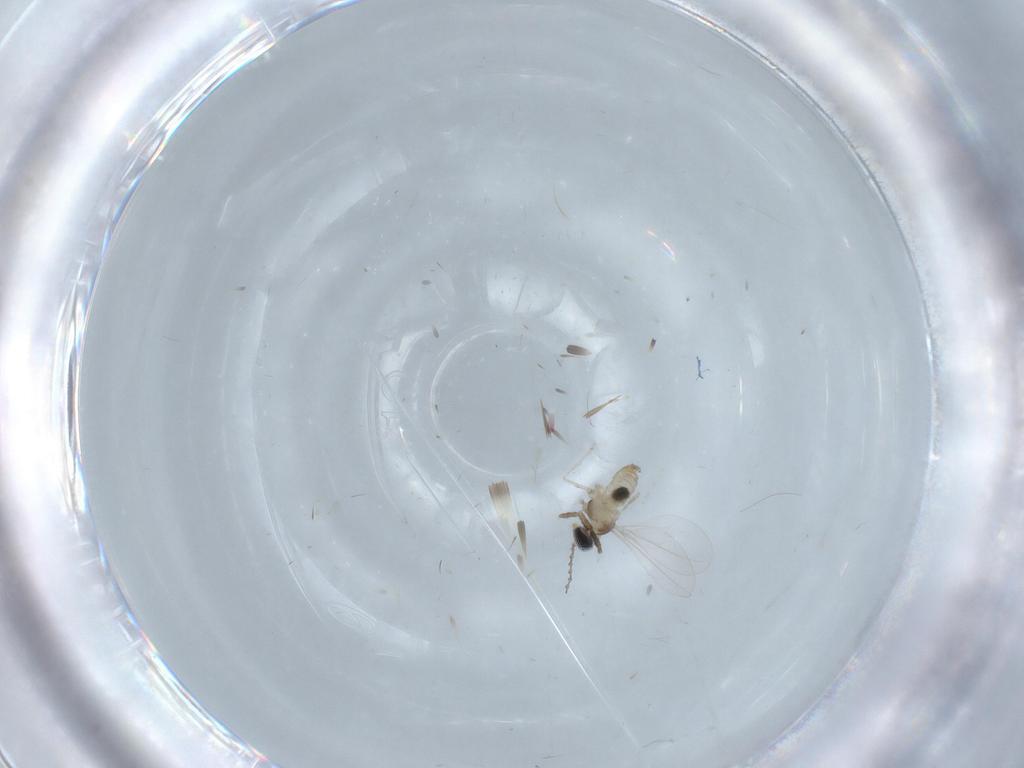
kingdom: Animalia
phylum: Arthropoda
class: Insecta
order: Diptera
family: Cecidomyiidae
